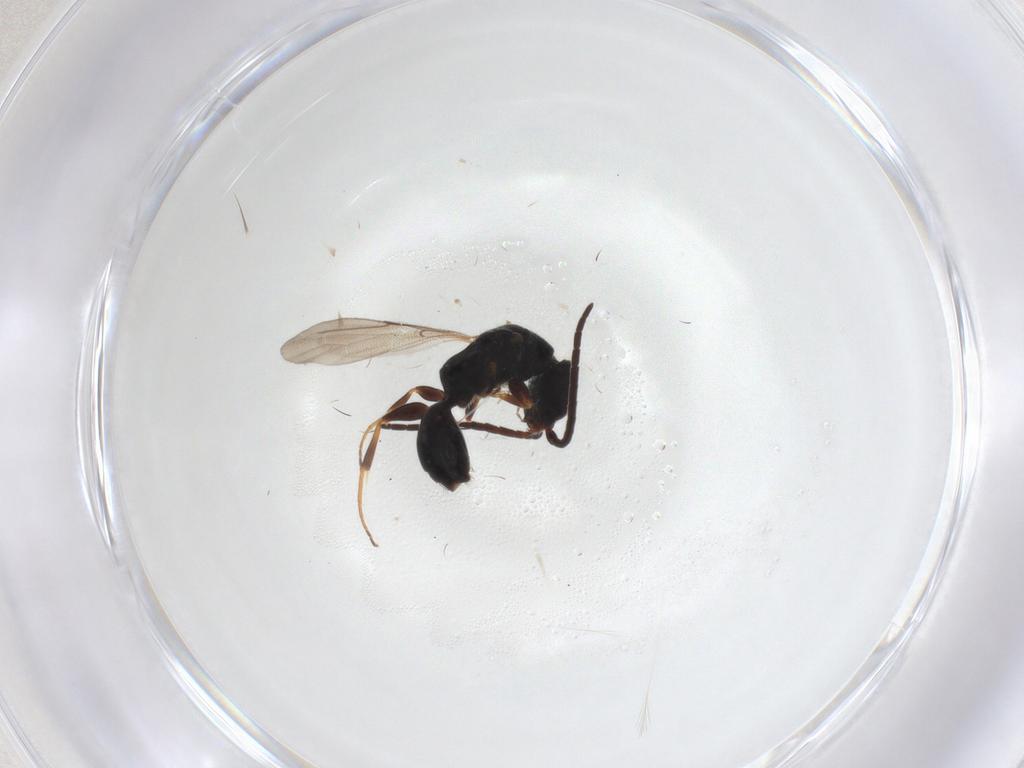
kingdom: Animalia
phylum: Arthropoda
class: Insecta
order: Hymenoptera
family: Bethylidae
